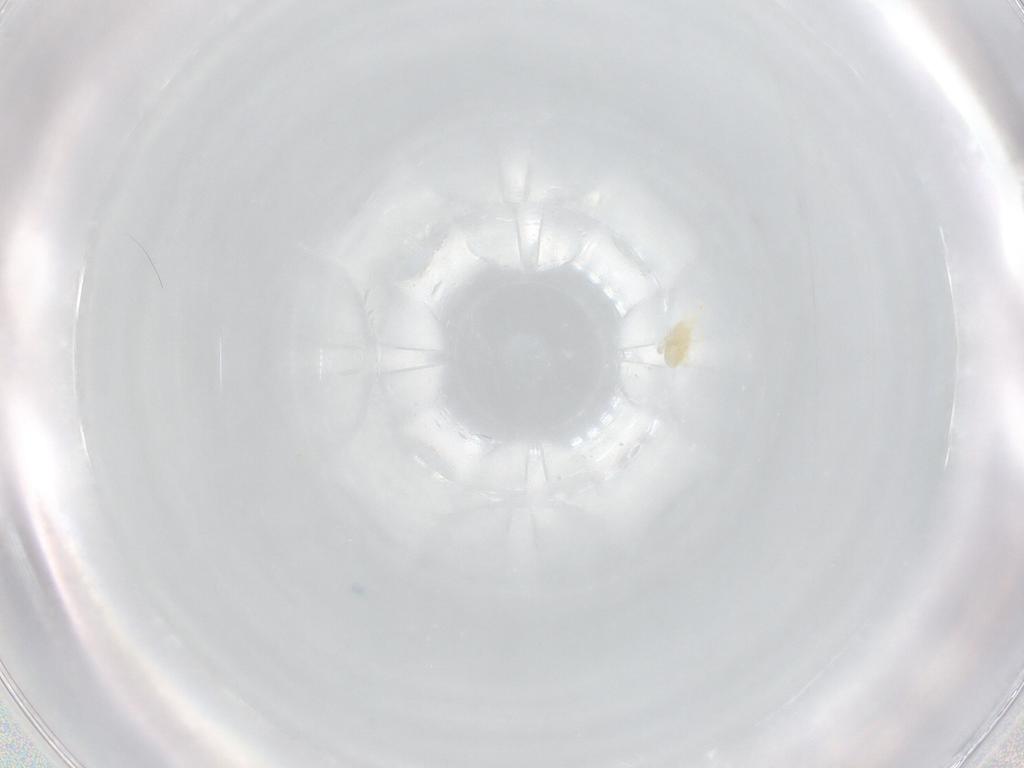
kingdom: Animalia
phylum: Arthropoda
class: Arachnida
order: Trombidiformes
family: Eupodidae
